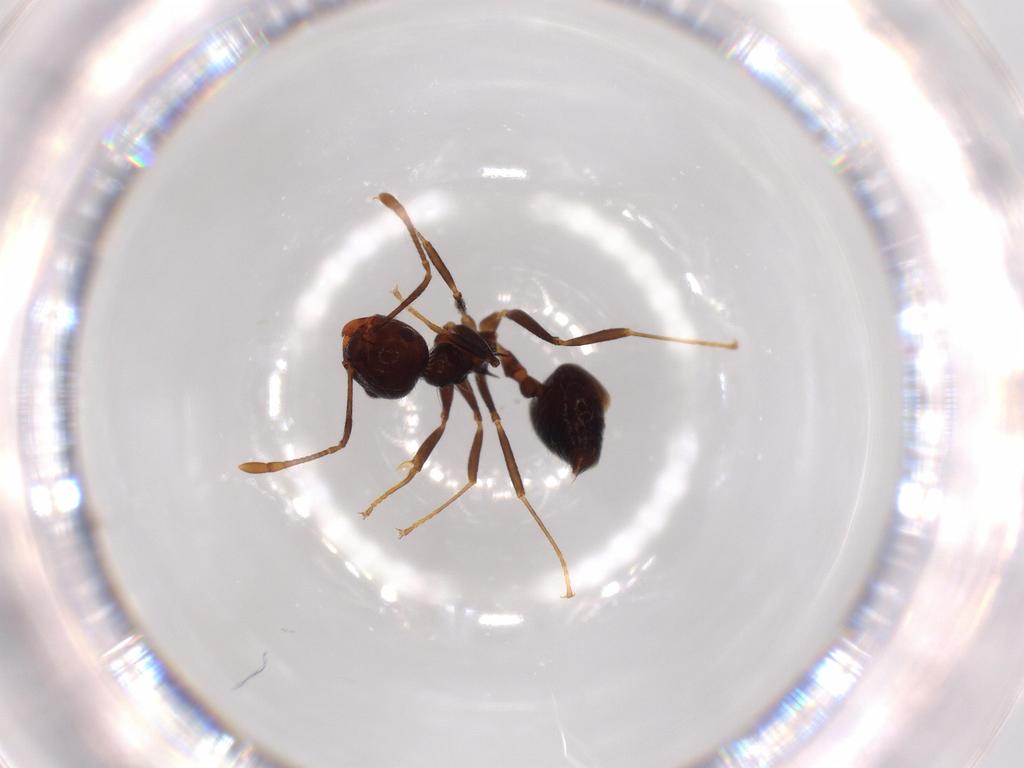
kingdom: Animalia
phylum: Arthropoda
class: Insecta
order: Hymenoptera
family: Formicidae
